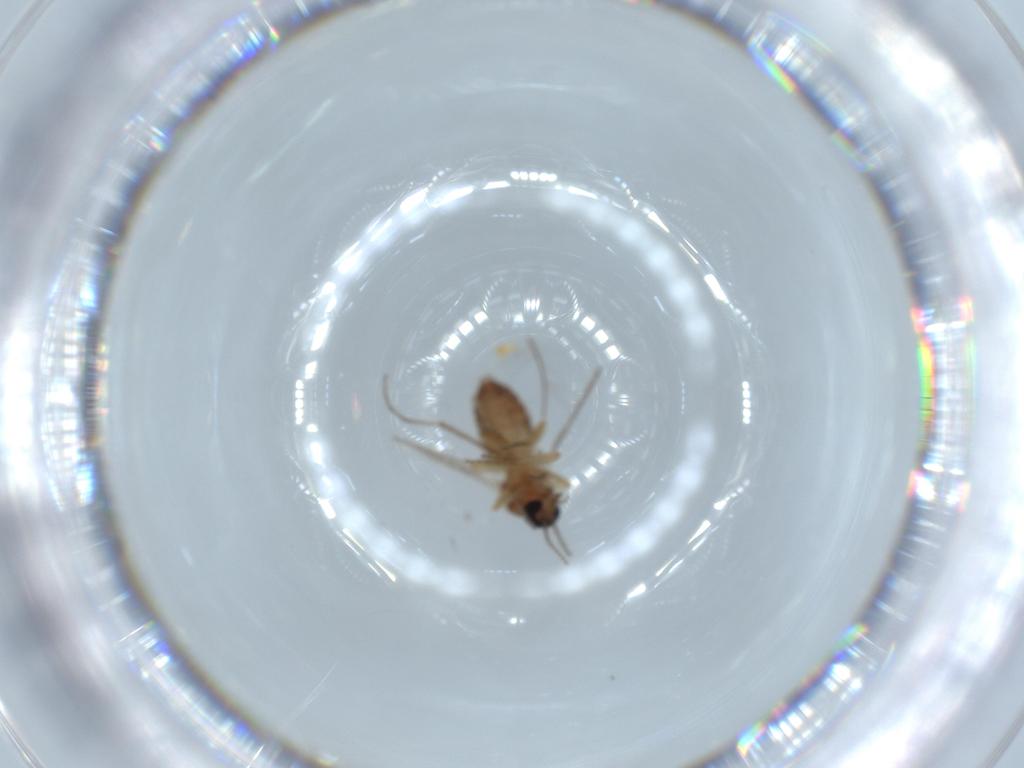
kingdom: Animalia
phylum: Arthropoda
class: Insecta
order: Diptera
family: Ceratopogonidae
